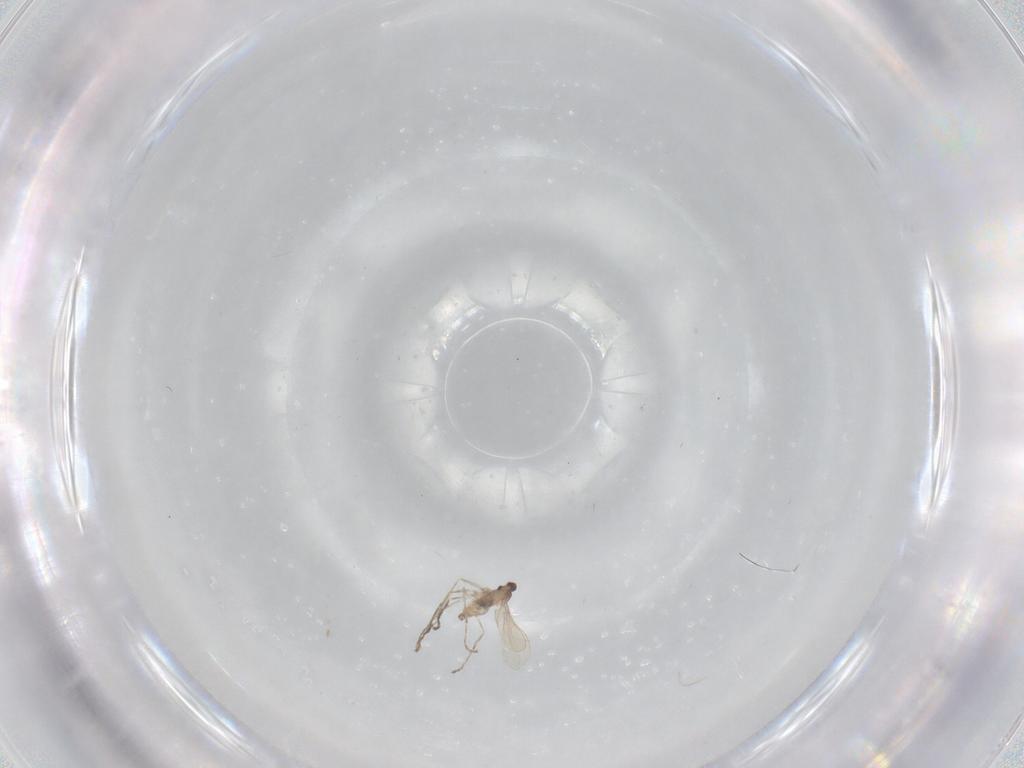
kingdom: Animalia
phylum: Arthropoda
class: Insecta
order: Diptera
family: Cecidomyiidae
